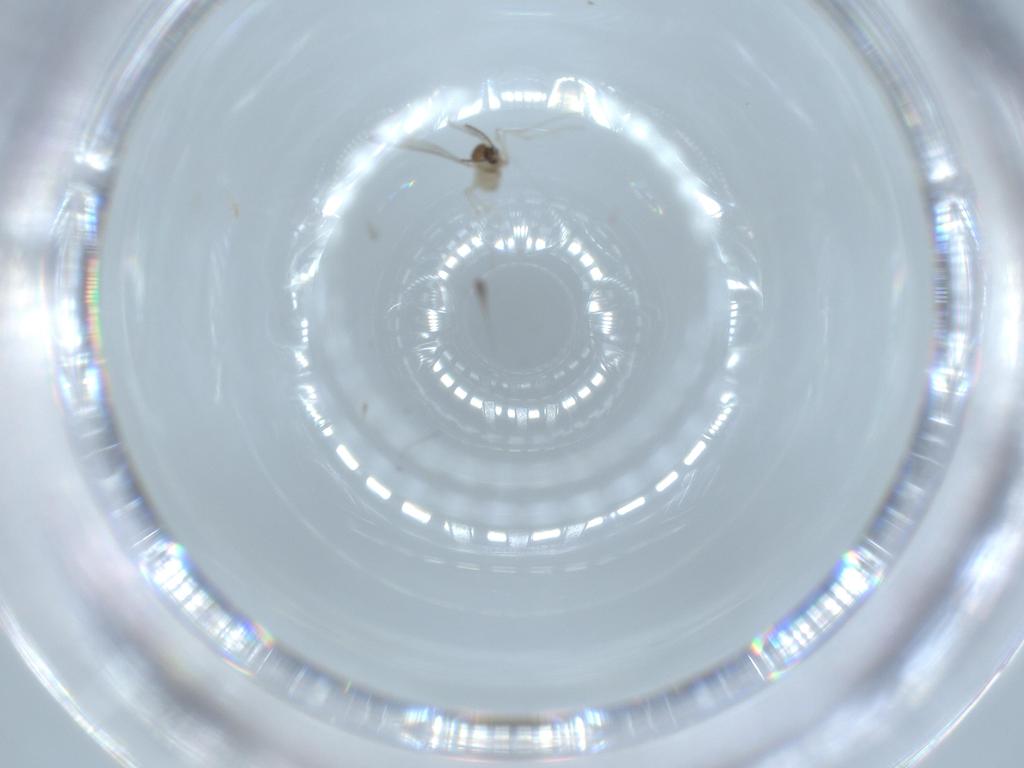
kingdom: Animalia
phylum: Arthropoda
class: Insecta
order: Diptera
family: Cecidomyiidae
